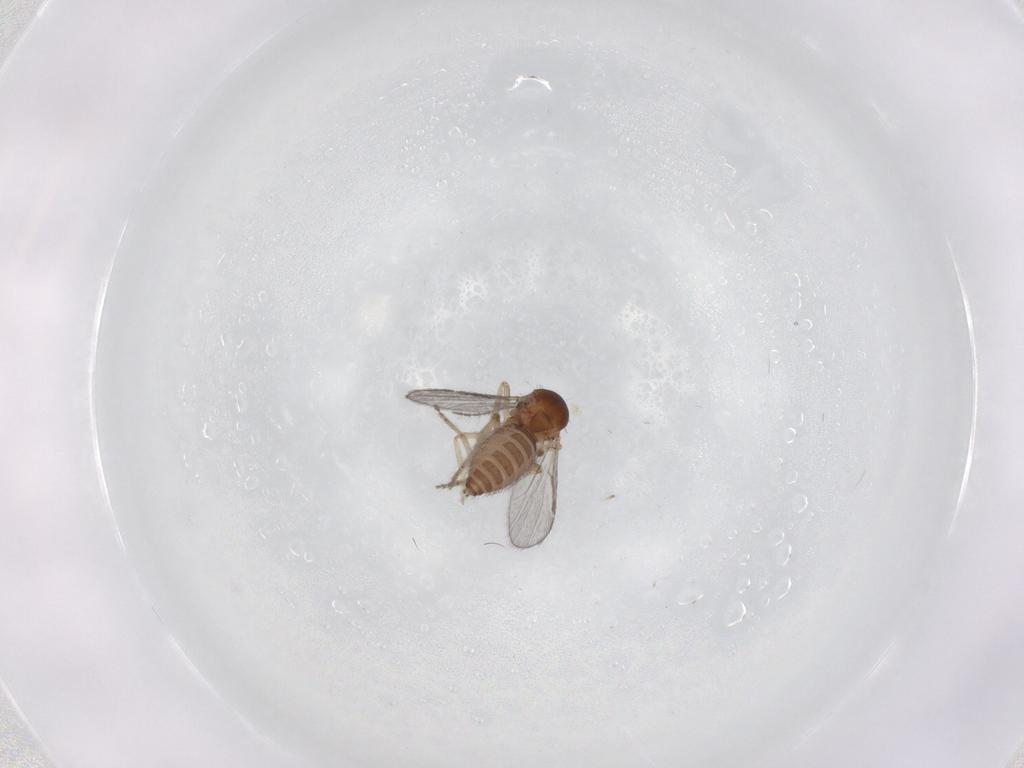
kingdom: Animalia
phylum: Arthropoda
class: Insecta
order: Diptera
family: Ceratopogonidae
